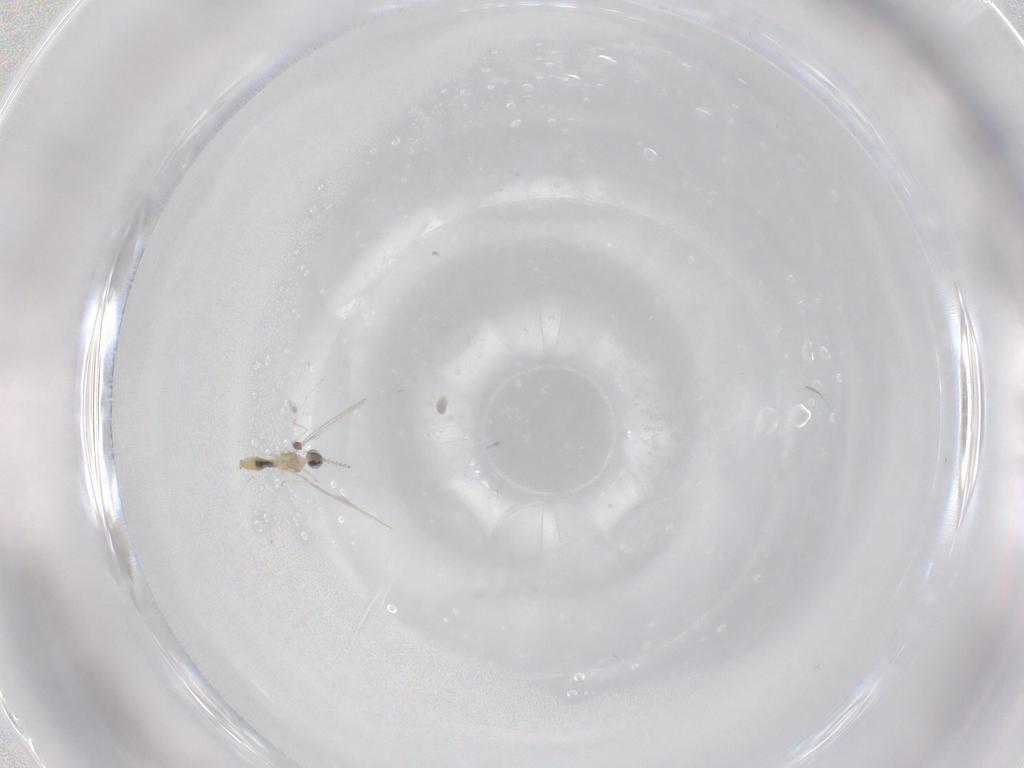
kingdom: Animalia
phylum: Arthropoda
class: Insecta
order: Diptera
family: Cecidomyiidae
